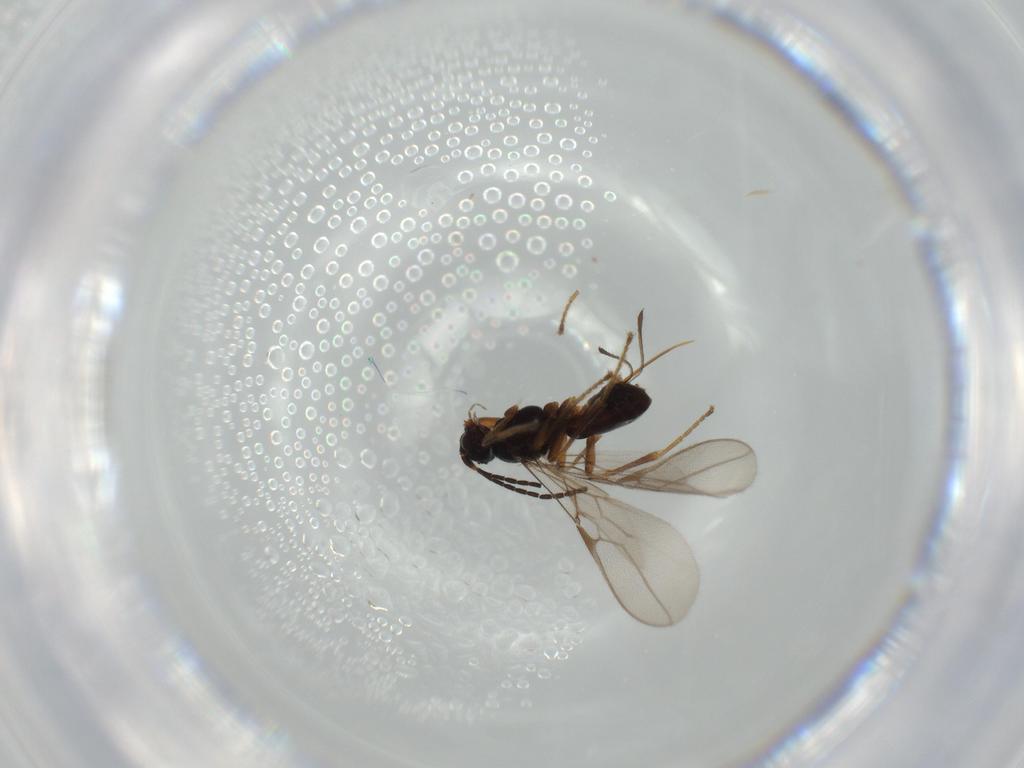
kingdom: Animalia
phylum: Arthropoda
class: Insecta
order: Hymenoptera
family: Braconidae
